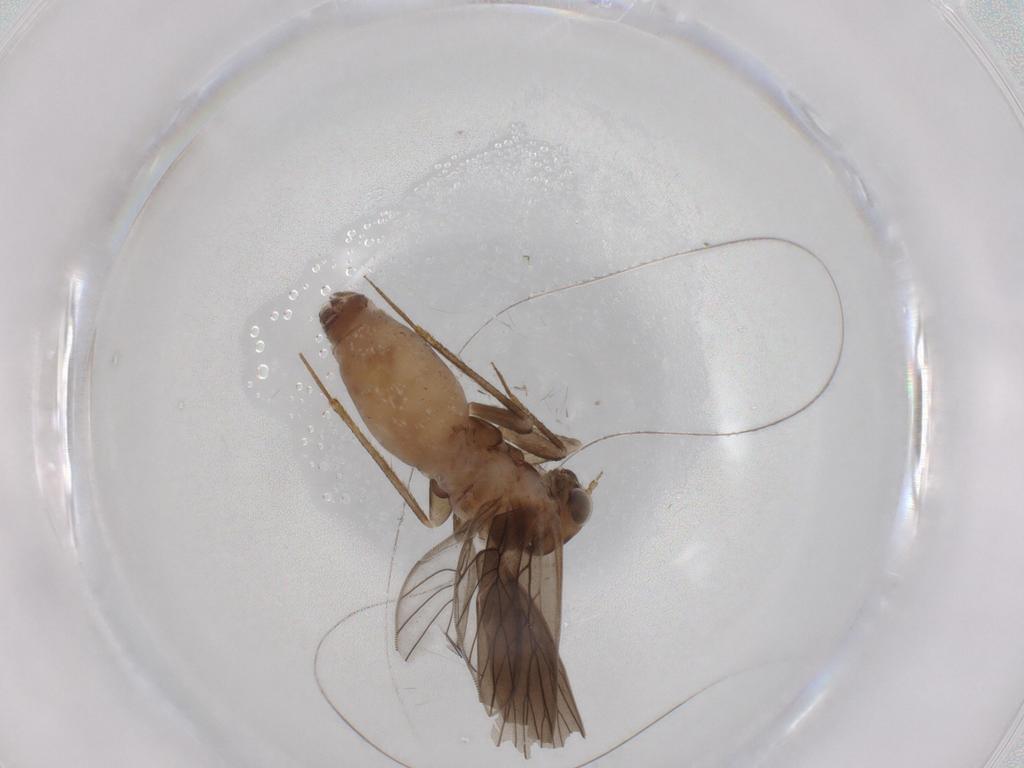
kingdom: Animalia
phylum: Arthropoda
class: Insecta
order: Psocodea
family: Lepidopsocidae
